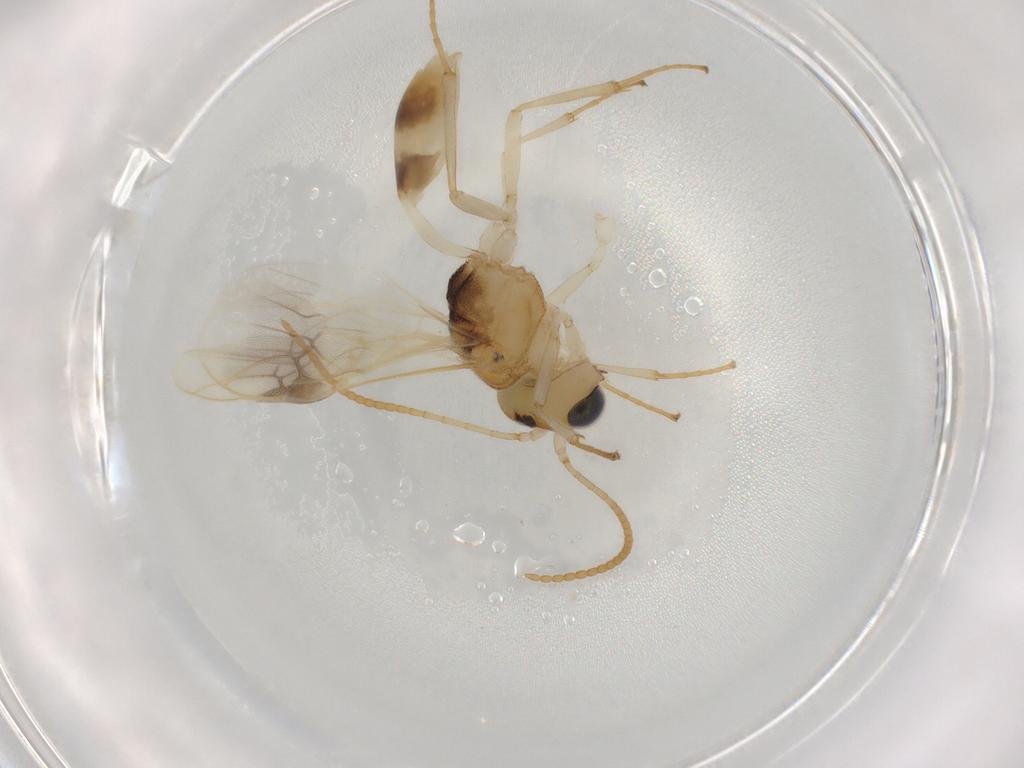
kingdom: Animalia
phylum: Arthropoda
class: Insecta
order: Hymenoptera
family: Braconidae
